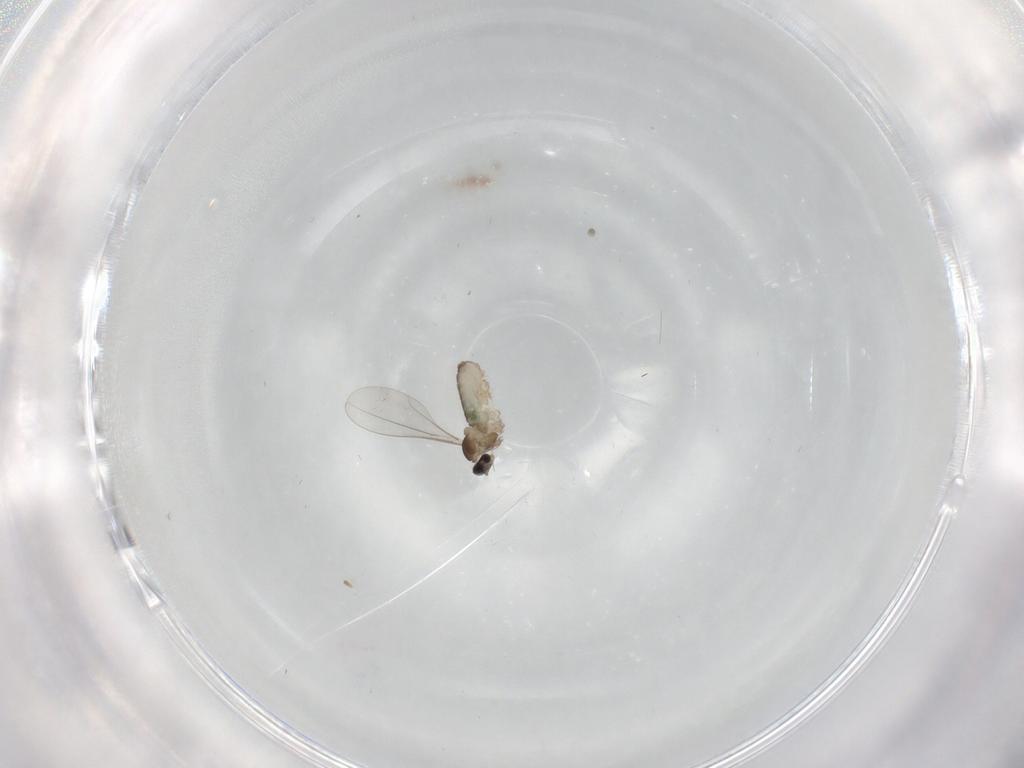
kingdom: Animalia
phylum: Arthropoda
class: Insecta
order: Diptera
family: Cecidomyiidae
